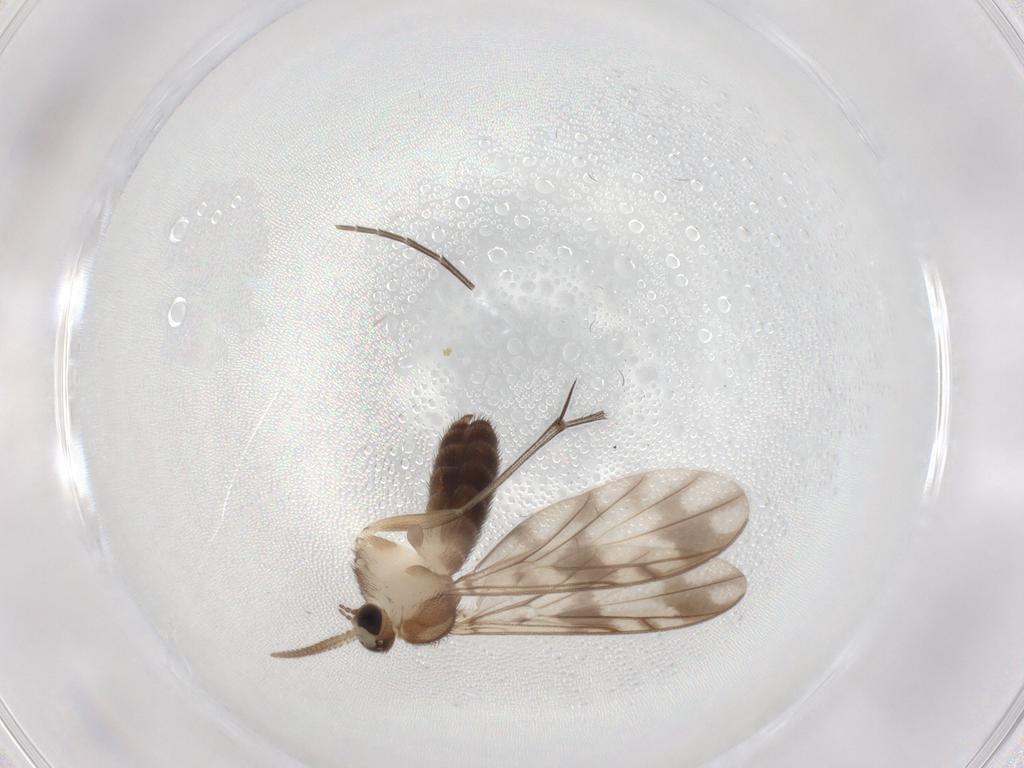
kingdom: Animalia
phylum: Arthropoda
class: Insecta
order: Diptera
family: Keroplatidae
